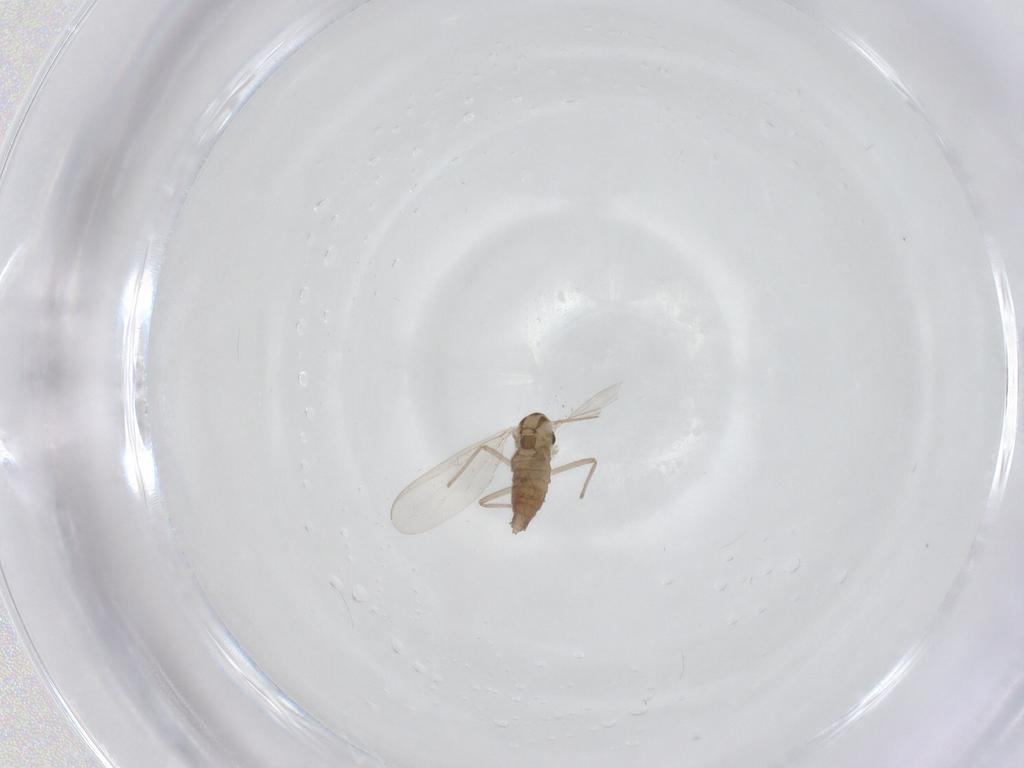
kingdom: Animalia
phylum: Arthropoda
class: Insecta
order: Diptera
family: Chironomidae
